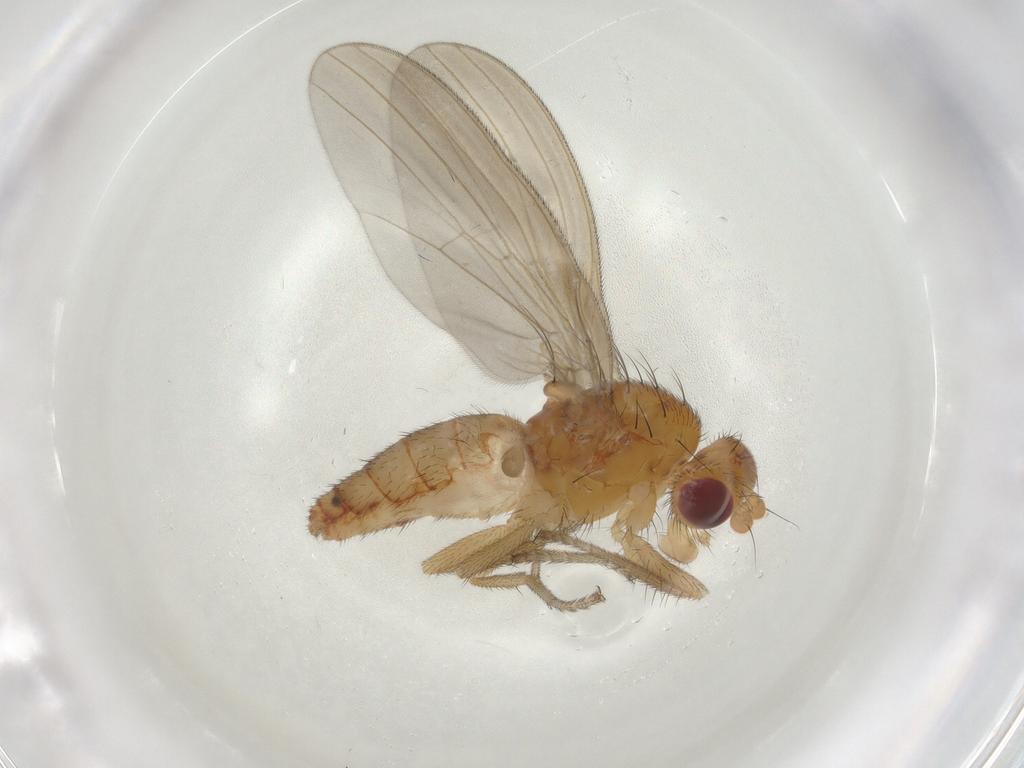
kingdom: Animalia
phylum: Arthropoda
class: Insecta
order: Diptera
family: Natalimyzidae
